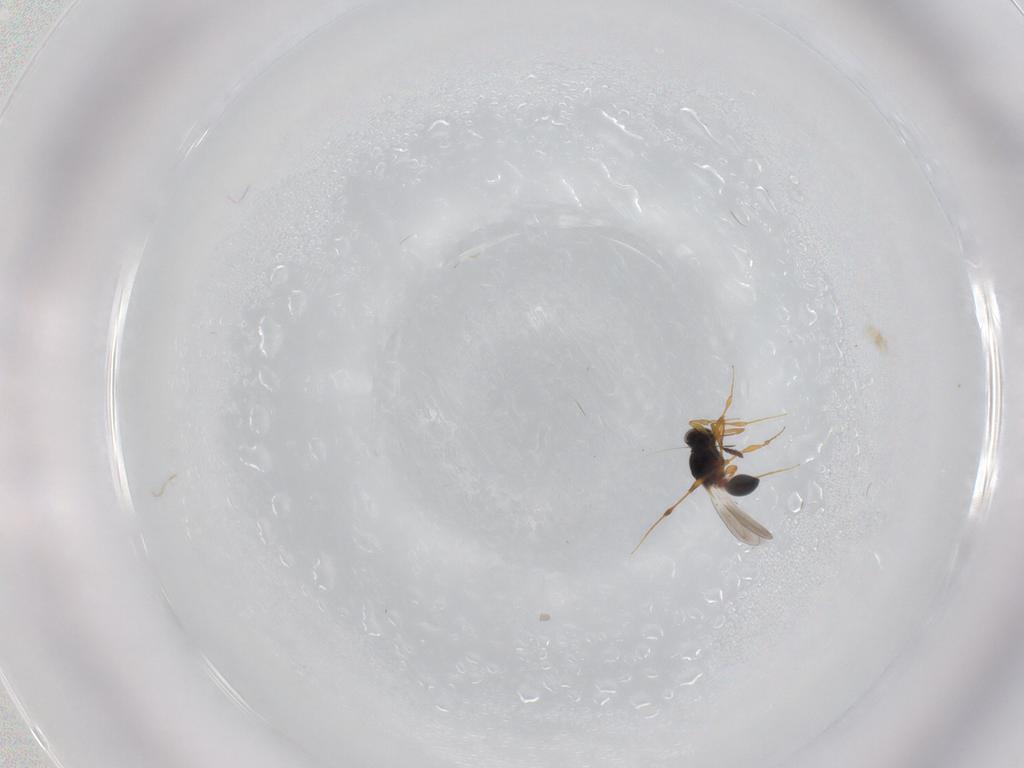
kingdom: Animalia
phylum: Arthropoda
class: Insecta
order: Hymenoptera
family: Platygastridae
